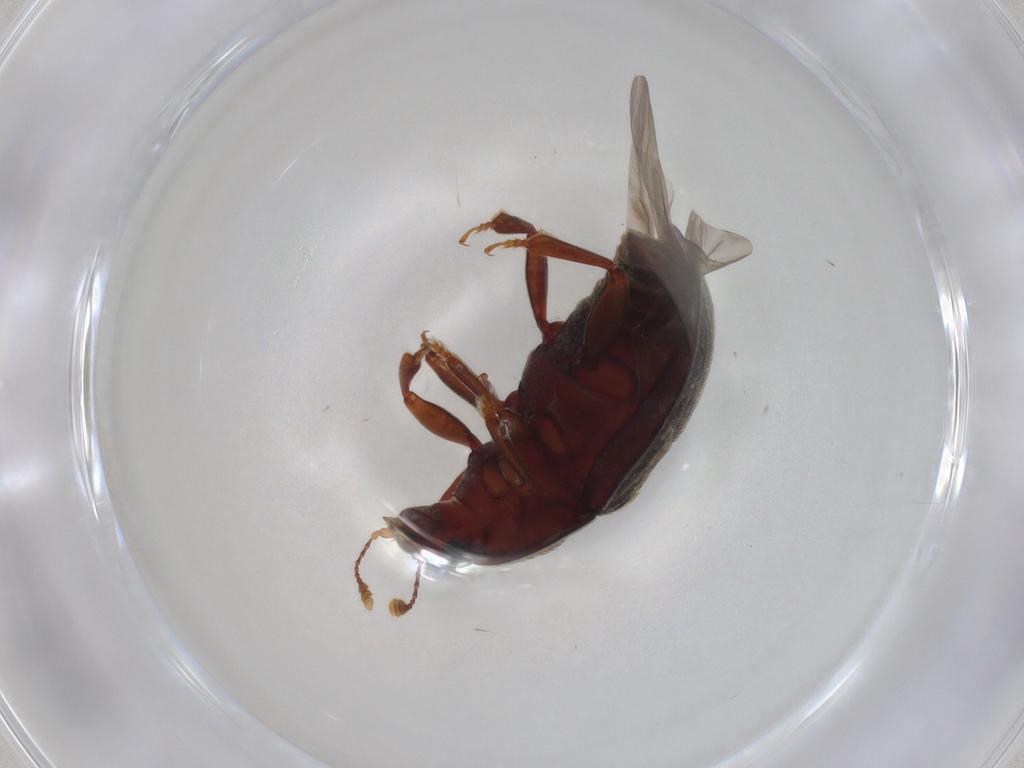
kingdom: Animalia
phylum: Arthropoda
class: Insecta
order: Coleoptera
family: Nitidulidae
